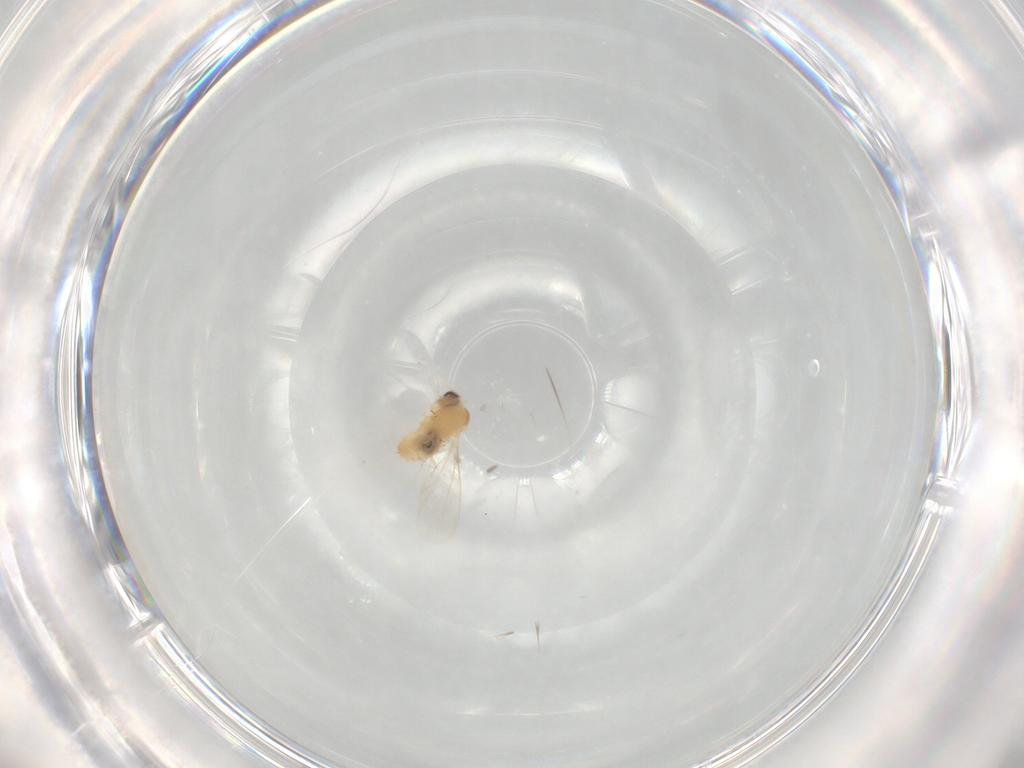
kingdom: Animalia
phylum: Arthropoda
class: Insecta
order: Diptera
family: Cecidomyiidae
